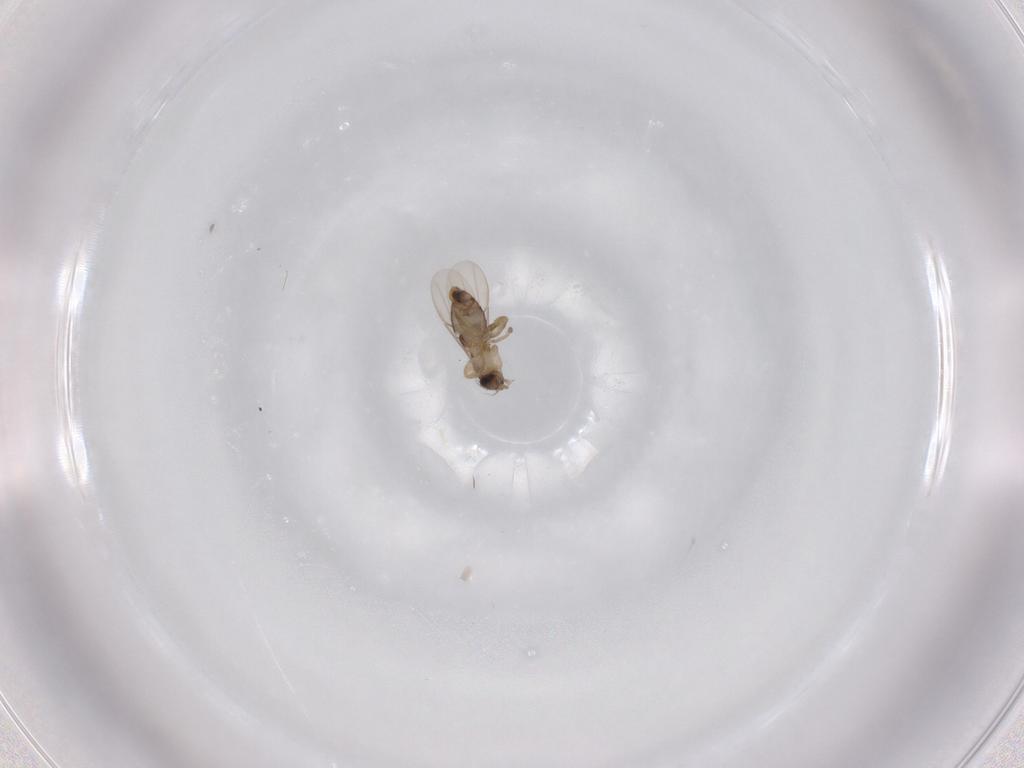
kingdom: Animalia
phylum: Arthropoda
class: Insecta
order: Diptera
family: Phoridae
